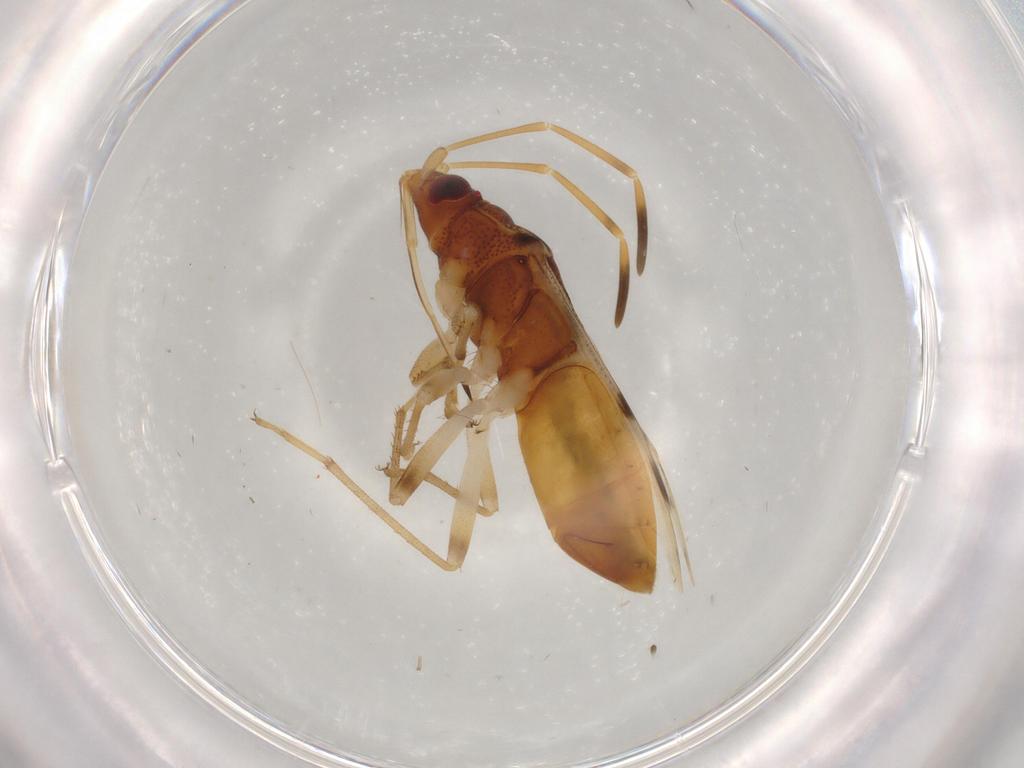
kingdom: Animalia
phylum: Arthropoda
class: Insecta
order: Hemiptera
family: Rhyparochromidae
